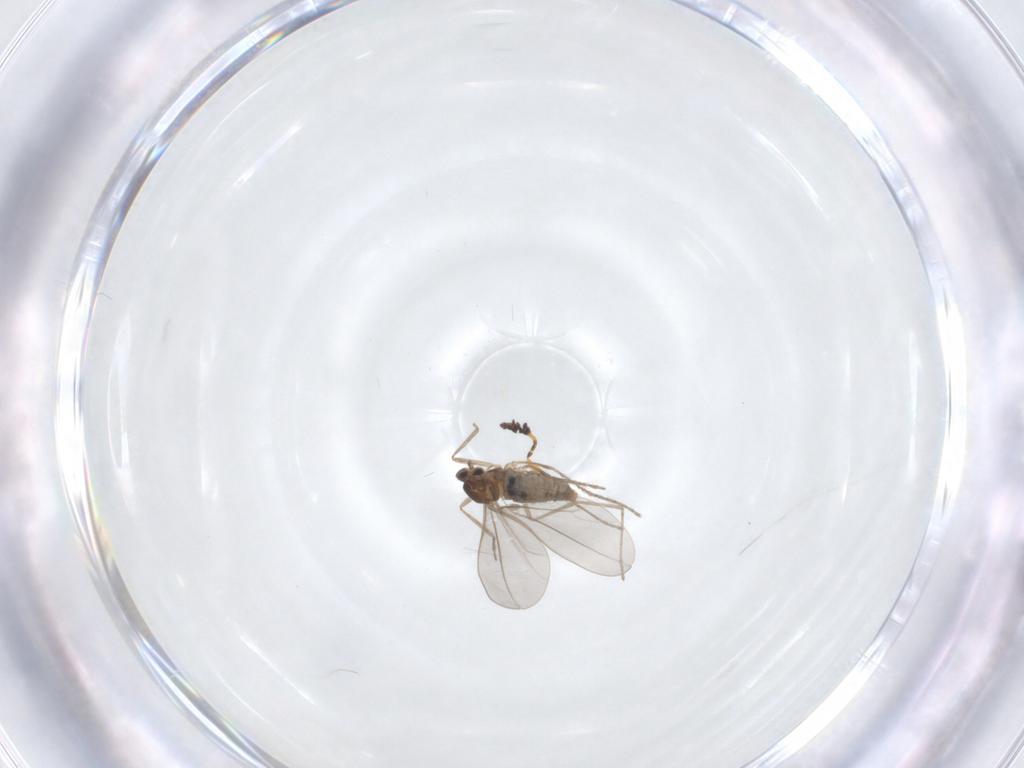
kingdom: Animalia
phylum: Arthropoda
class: Insecta
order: Diptera
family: Cecidomyiidae
